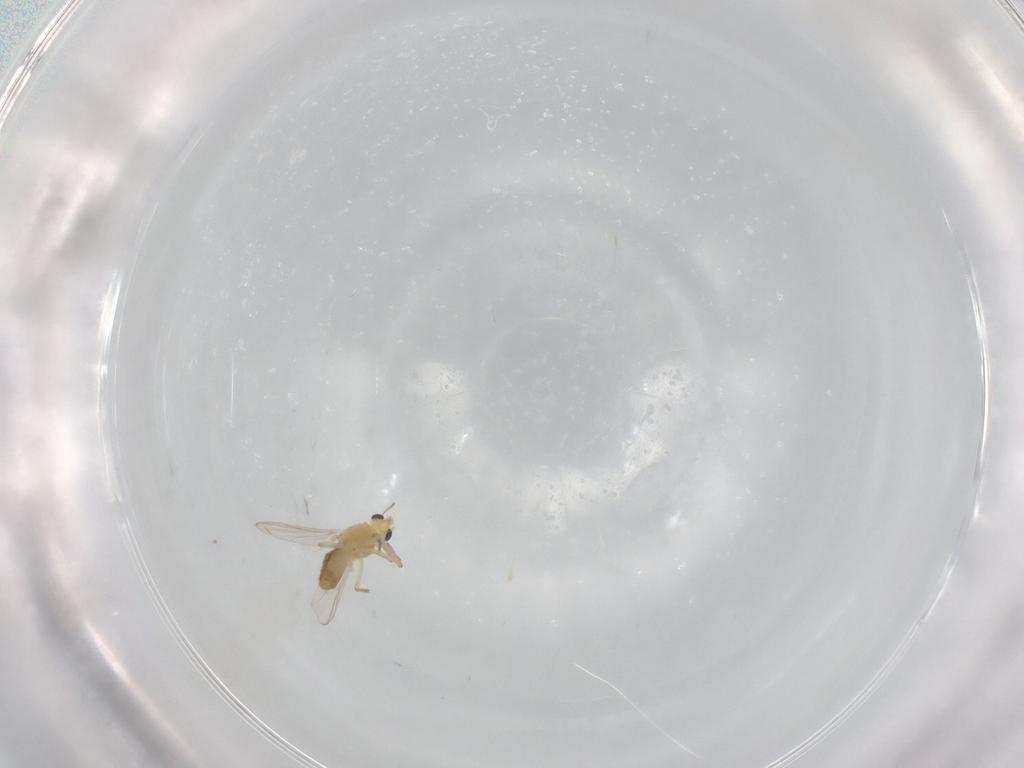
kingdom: Animalia
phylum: Arthropoda
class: Insecta
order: Diptera
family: Chironomidae
